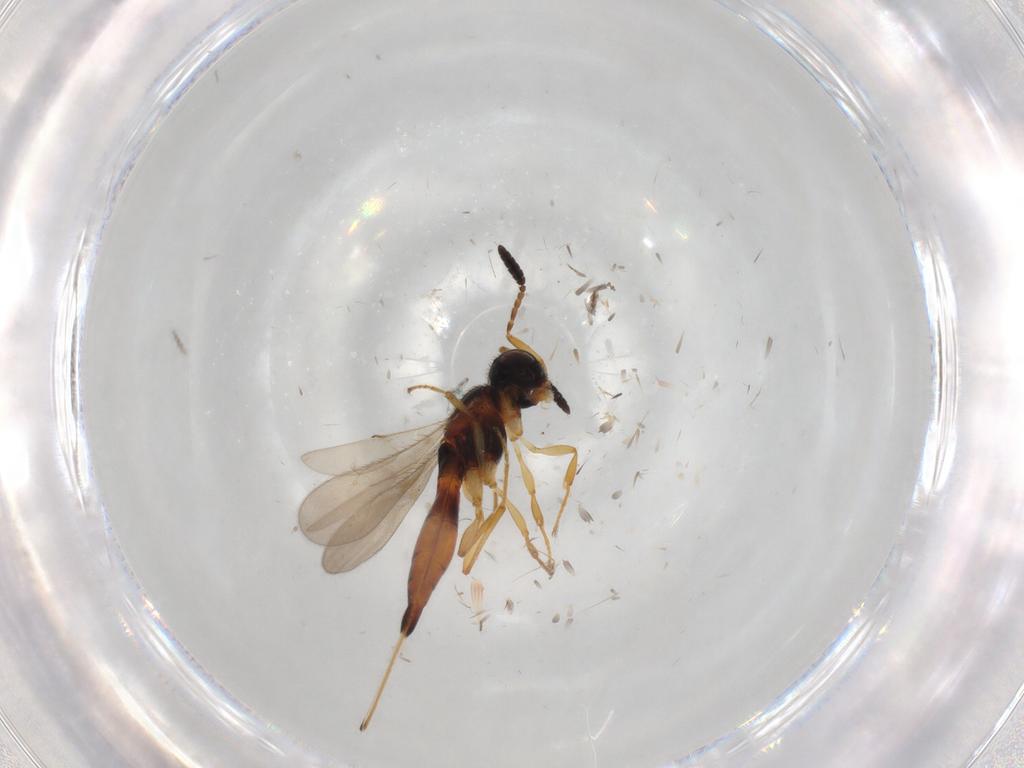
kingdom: Animalia
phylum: Arthropoda
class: Insecta
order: Hymenoptera
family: Scelionidae
